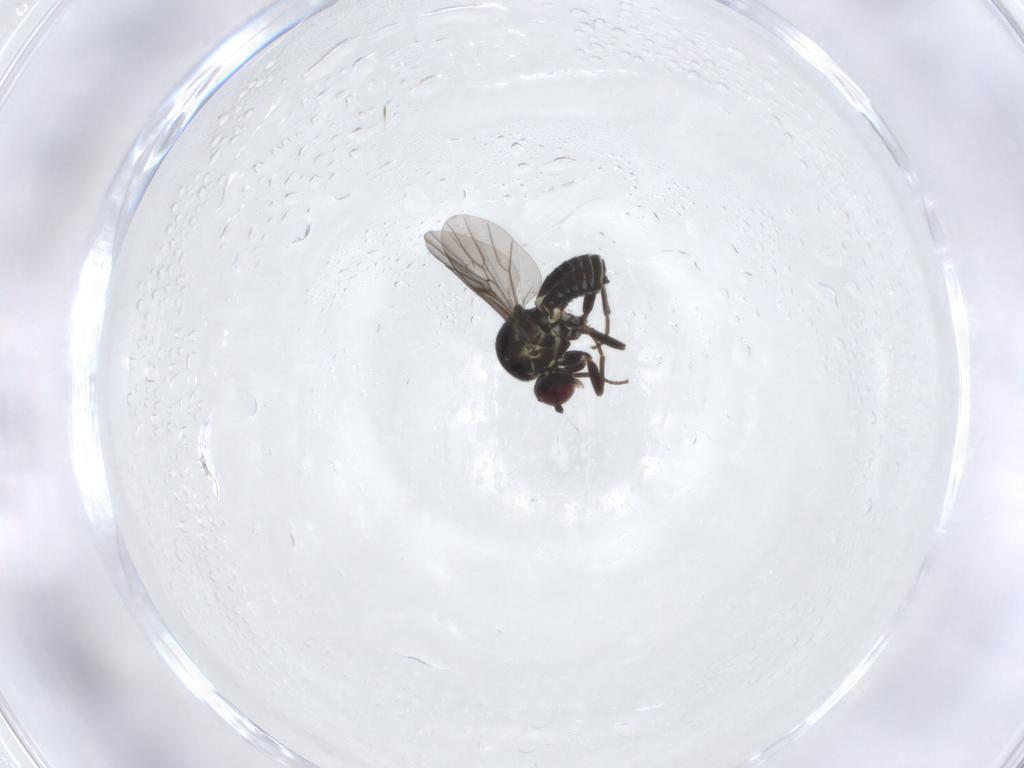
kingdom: Animalia
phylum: Arthropoda
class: Insecta
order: Diptera
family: Mythicomyiidae
